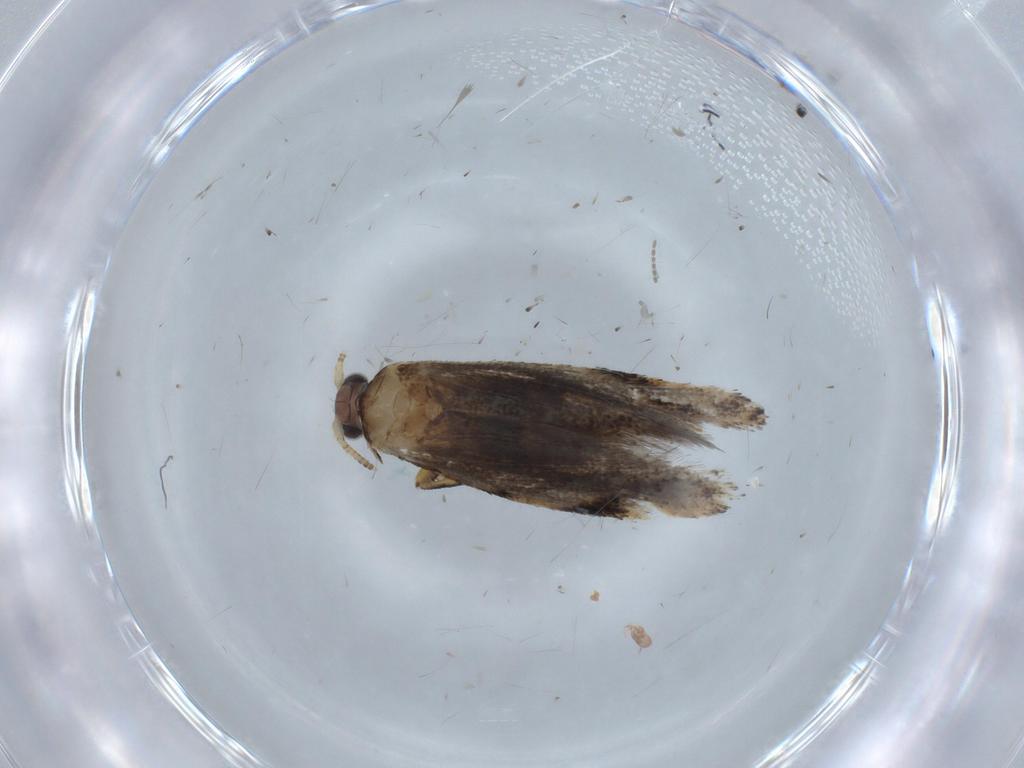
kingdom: Animalia
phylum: Arthropoda
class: Insecta
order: Lepidoptera
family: Dryadaulidae
